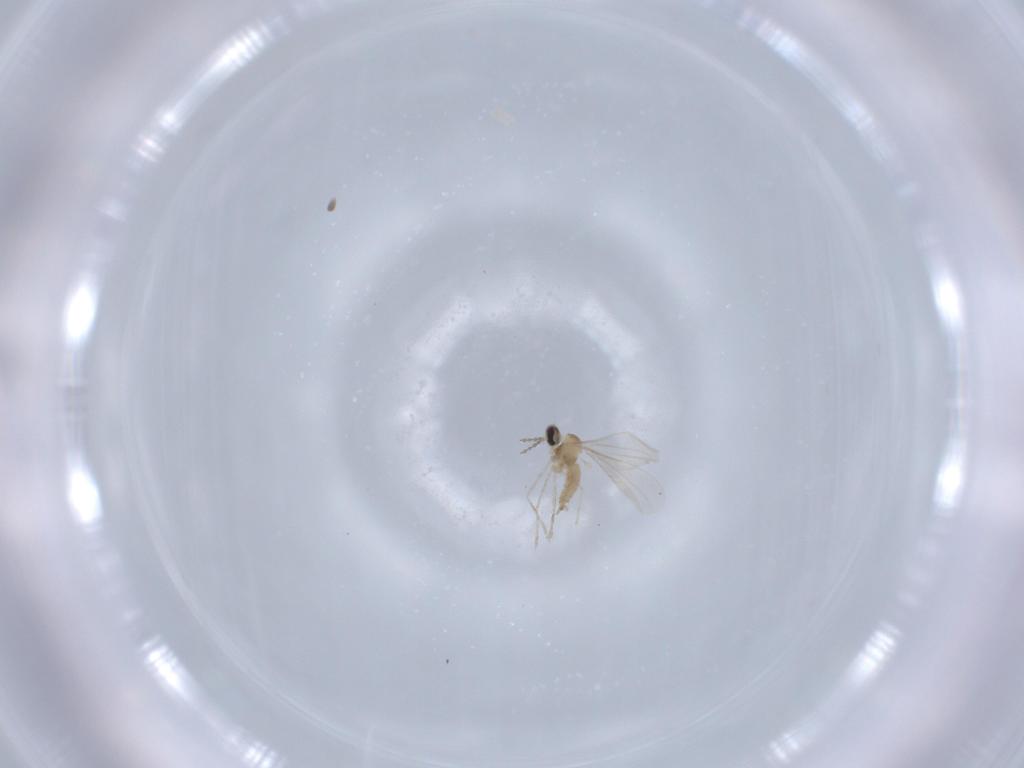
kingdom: Animalia
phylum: Arthropoda
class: Insecta
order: Diptera
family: Cecidomyiidae
